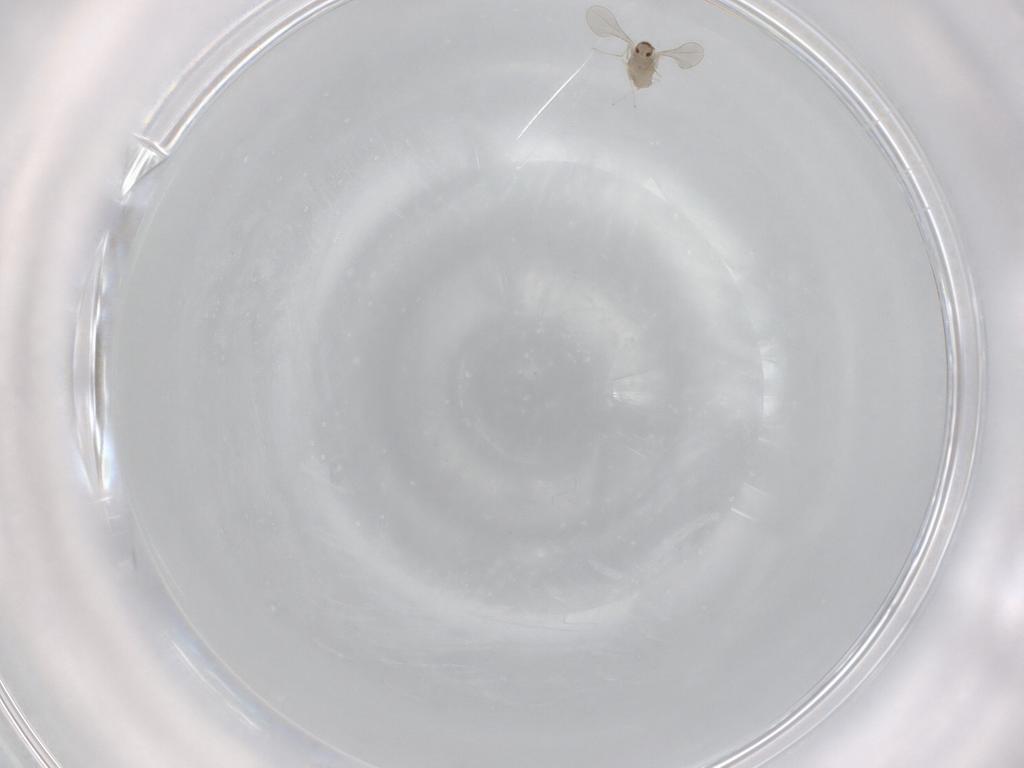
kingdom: Animalia
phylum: Arthropoda
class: Insecta
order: Diptera
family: Cecidomyiidae
